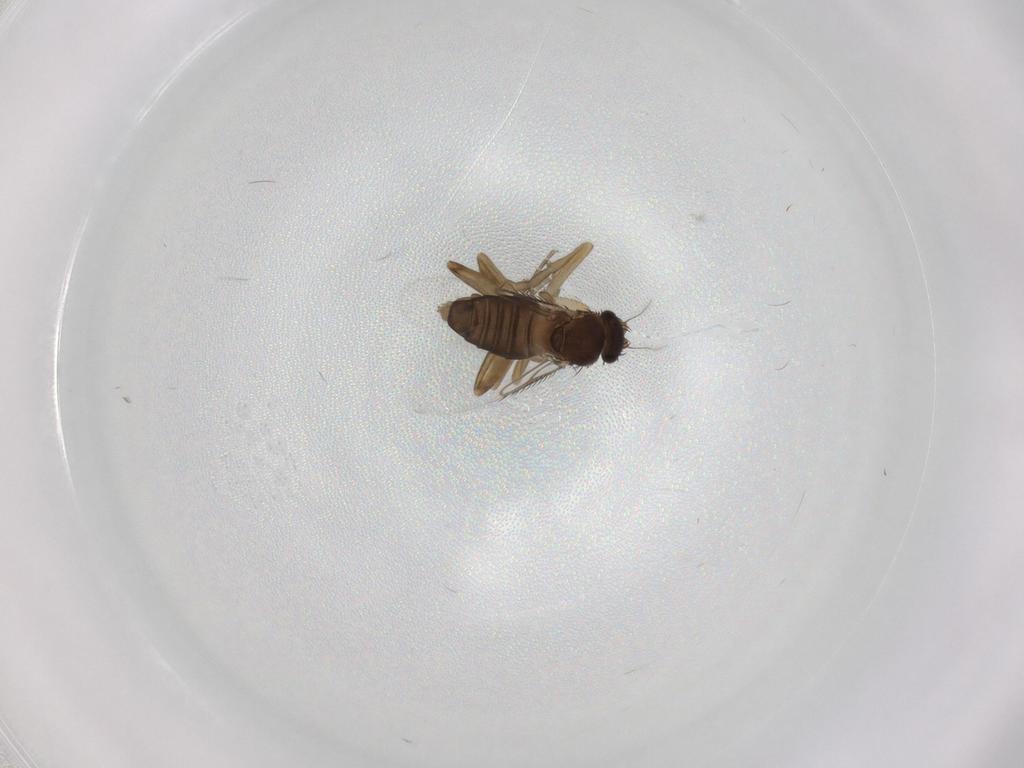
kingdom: Animalia
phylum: Arthropoda
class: Insecta
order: Diptera
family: Phoridae
